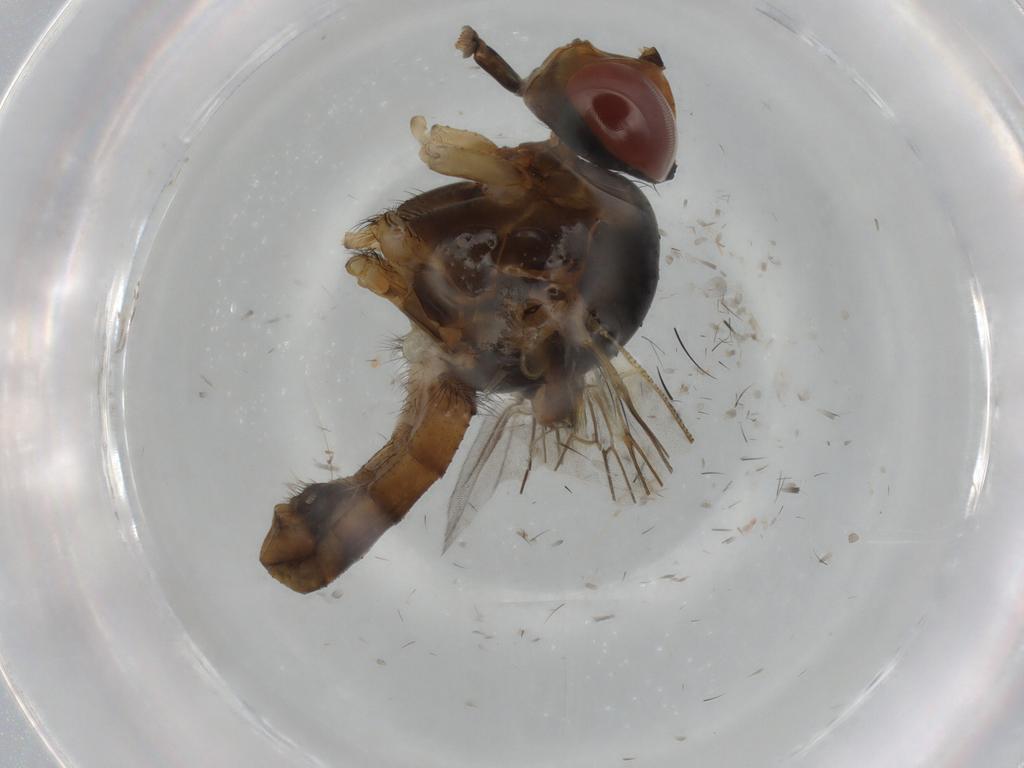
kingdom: Animalia
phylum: Arthropoda
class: Insecta
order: Diptera
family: Anthomyiidae
